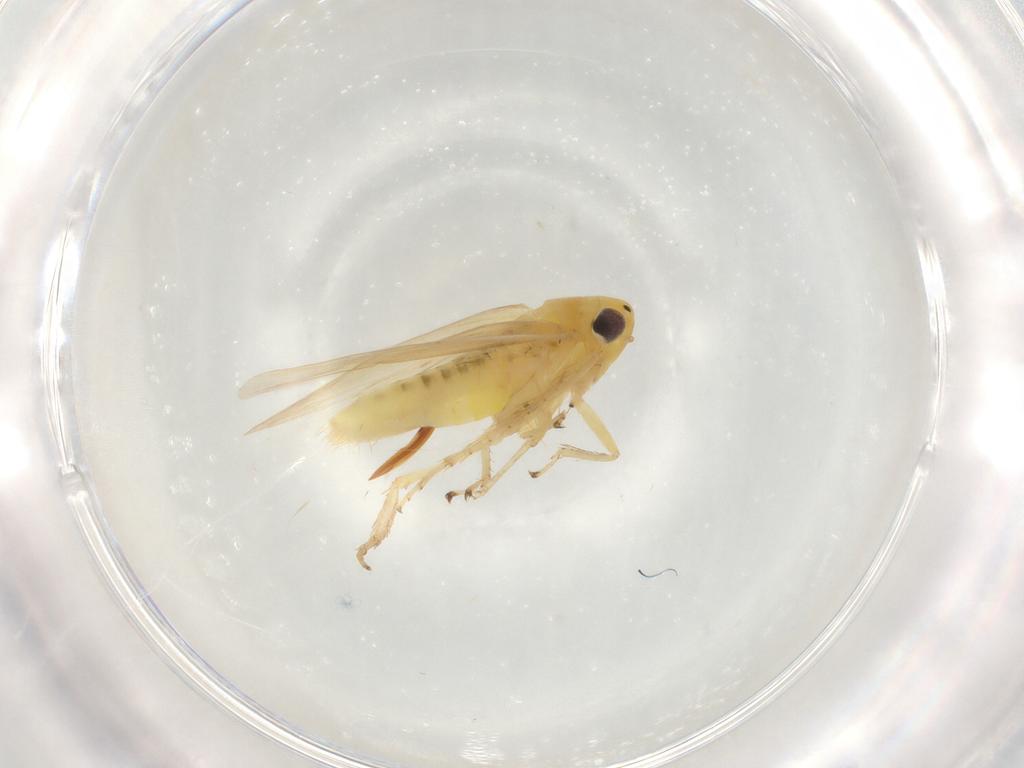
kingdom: Animalia
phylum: Arthropoda
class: Insecta
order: Hemiptera
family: Cicadellidae
